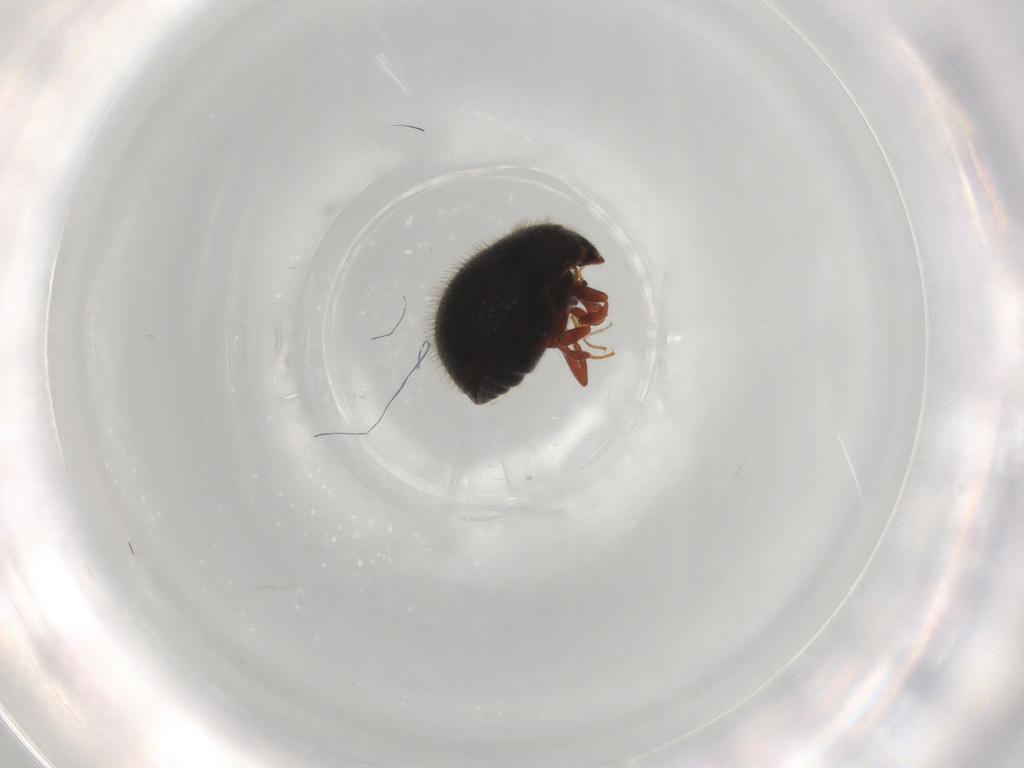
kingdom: Animalia
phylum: Arthropoda
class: Insecta
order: Coleoptera
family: Sphindidae
